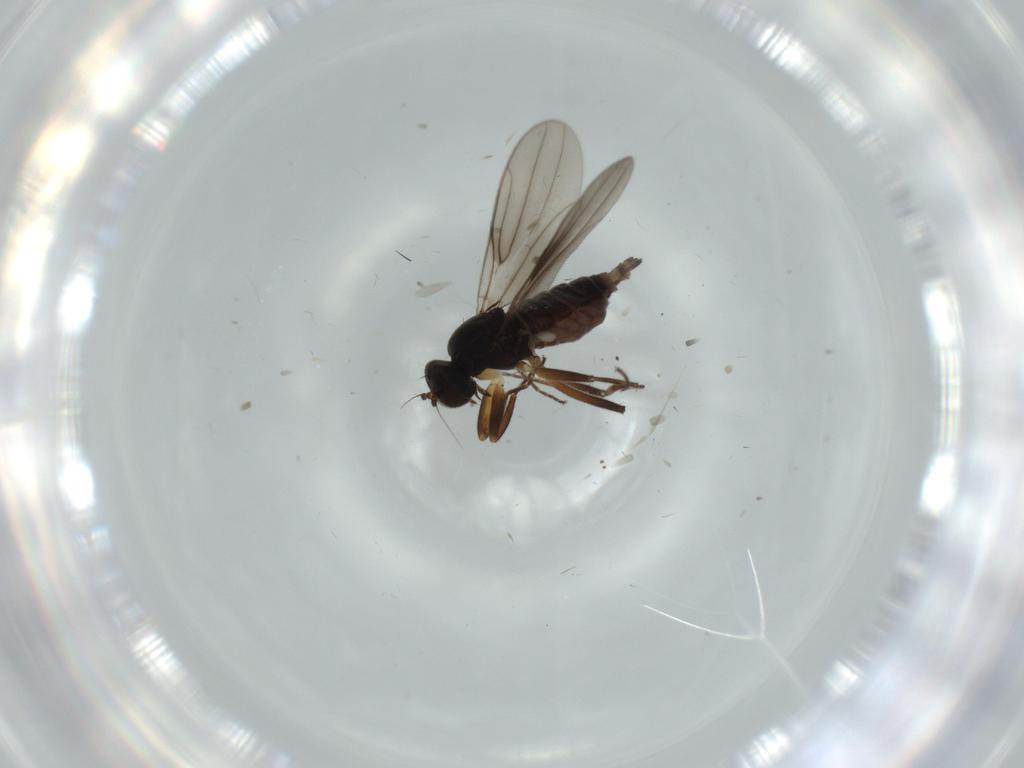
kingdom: Animalia
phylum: Arthropoda
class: Insecta
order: Diptera
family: Hybotidae
